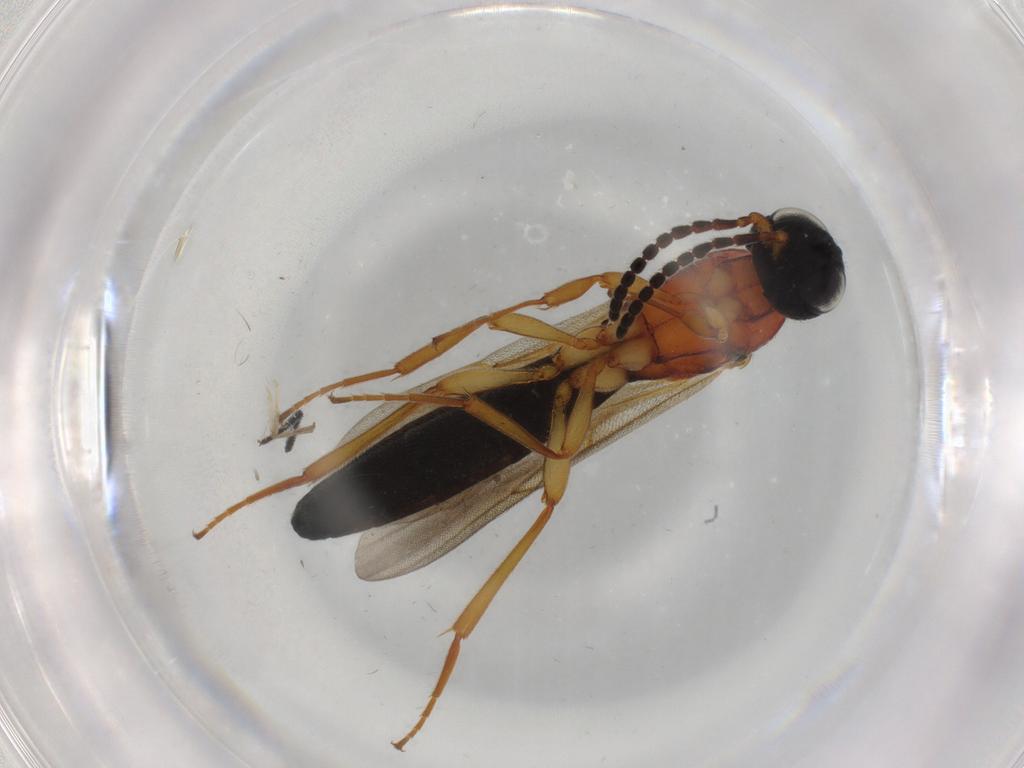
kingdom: Animalia
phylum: Arthropoda
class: Insecta
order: Hymenoptera
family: Scelionidae
